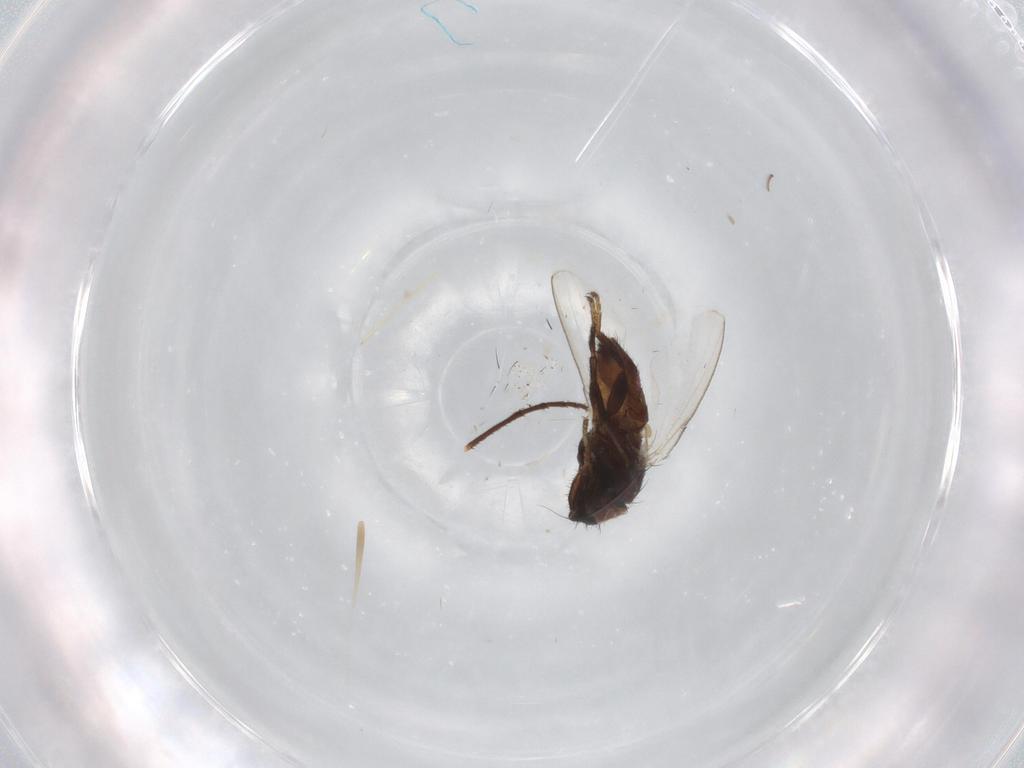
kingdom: Animalia
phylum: Arthropoda
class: Insecta
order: Diptera
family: Dolichopodidae
